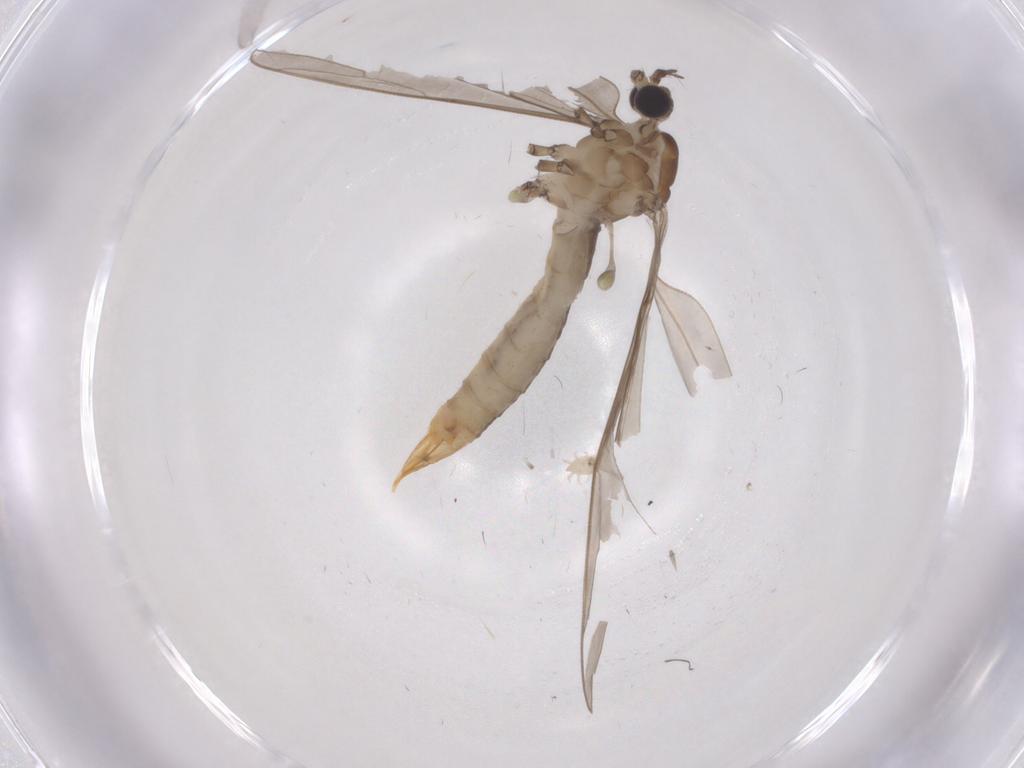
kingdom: Animalia
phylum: Arthropoda
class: Insecta
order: Diptera
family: Limoniidae
